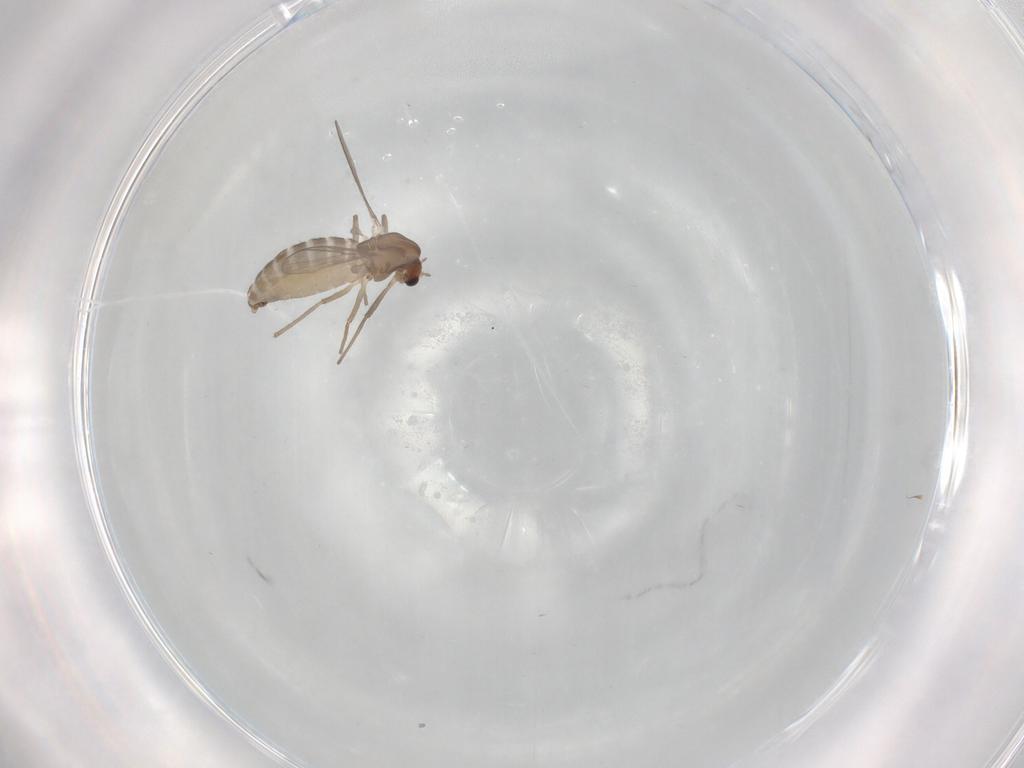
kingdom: Animalia
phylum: Arthropoda
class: Insecta
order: Diptera
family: Chironomidae
